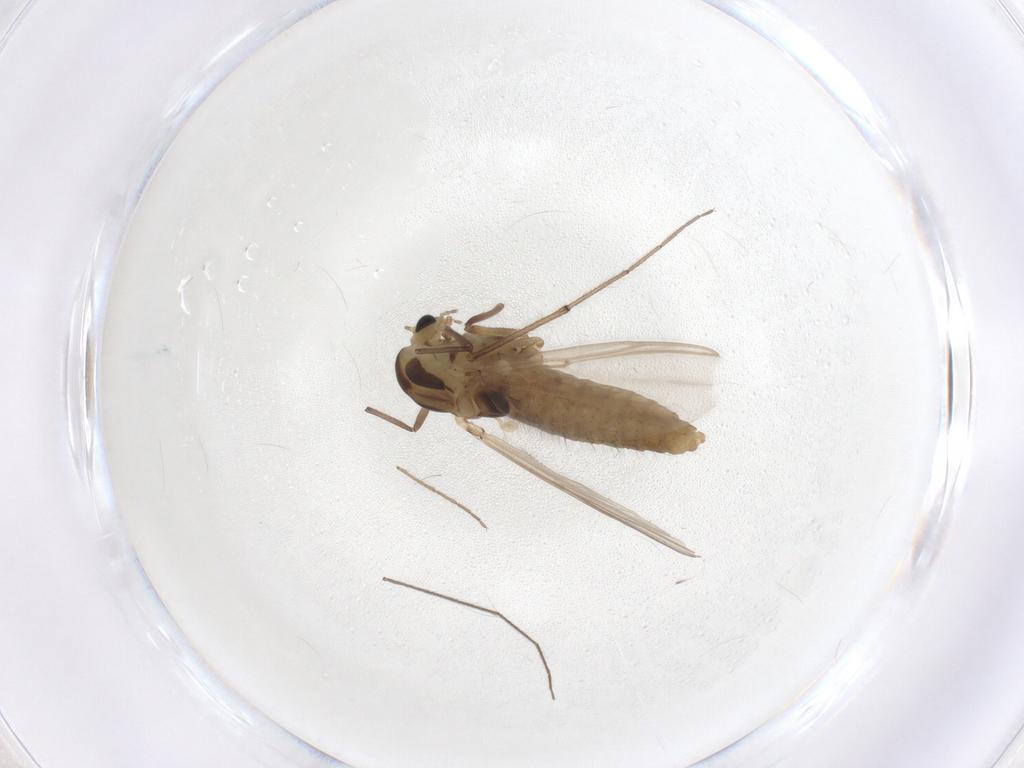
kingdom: Animalia
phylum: Arthropoda
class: Insecta
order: Diptera
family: Chironomidae
